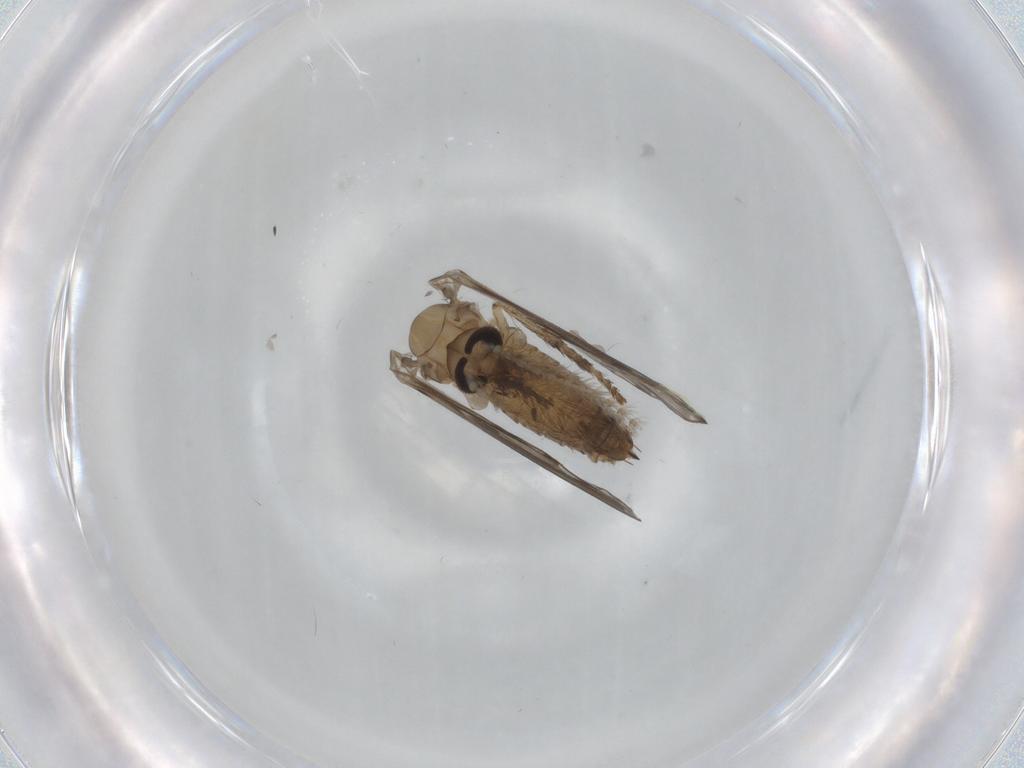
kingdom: Animalia
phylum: Arthropoda
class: Insecta
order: Diptera
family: Psychodidae
